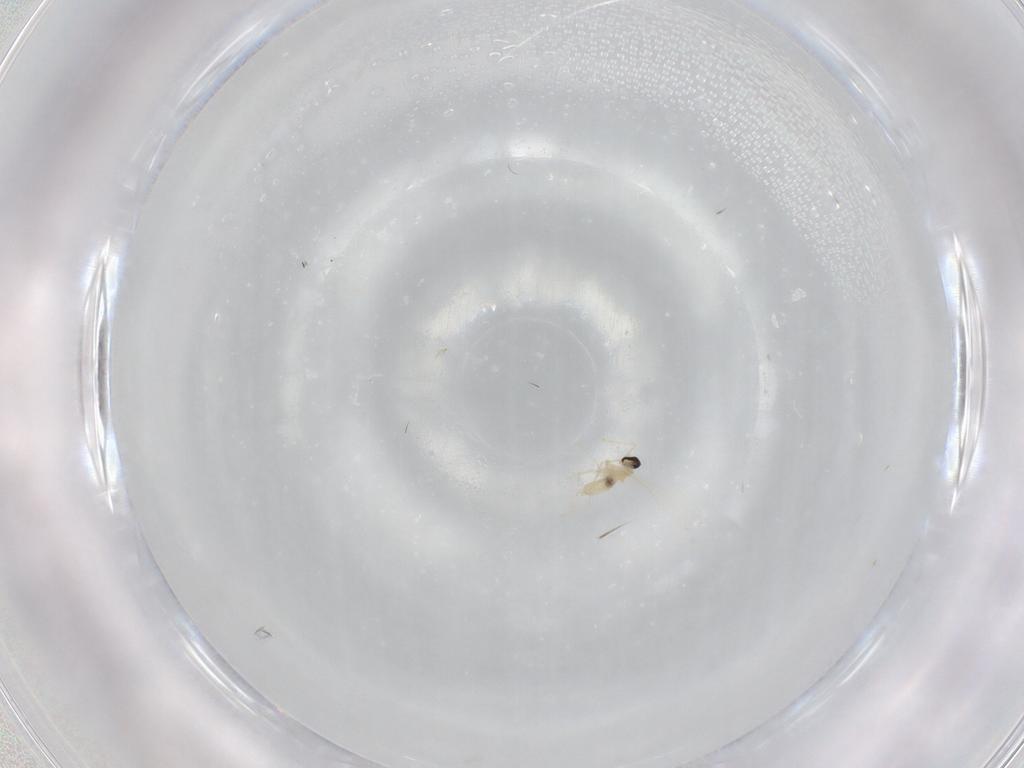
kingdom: Animalia
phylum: Arthropoda
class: Insecta
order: Diptera
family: Cecidomyiidae
